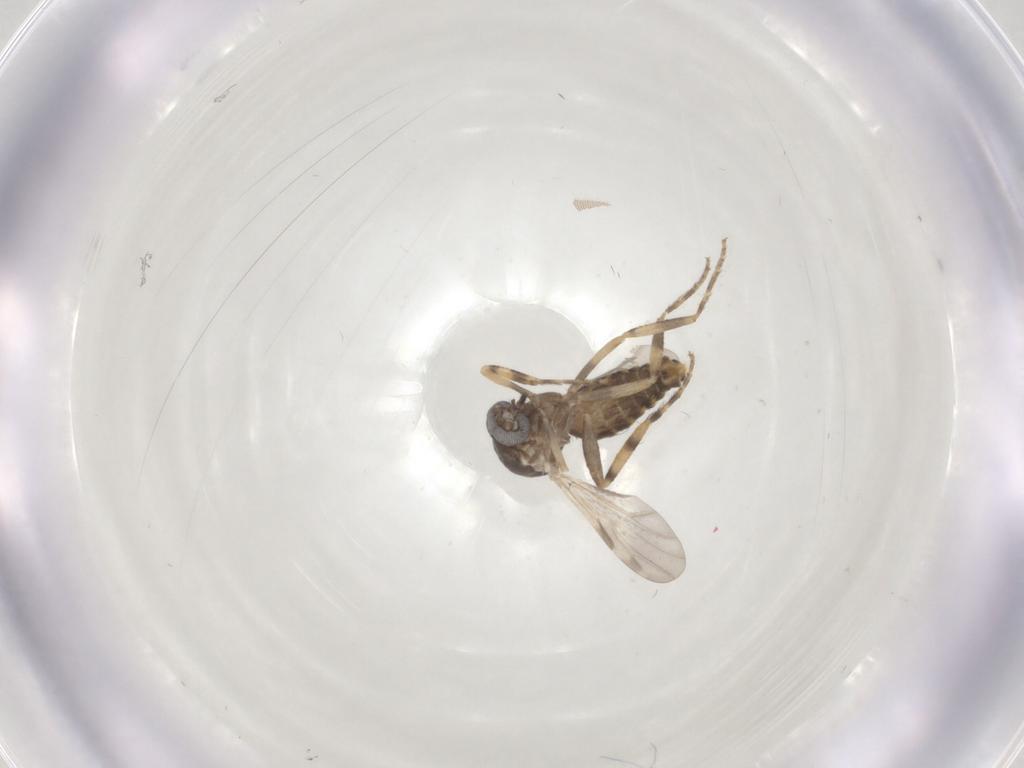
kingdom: Animalia
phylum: Arthropoda
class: Insecta
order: Diptera
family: Ceratopogonidae
